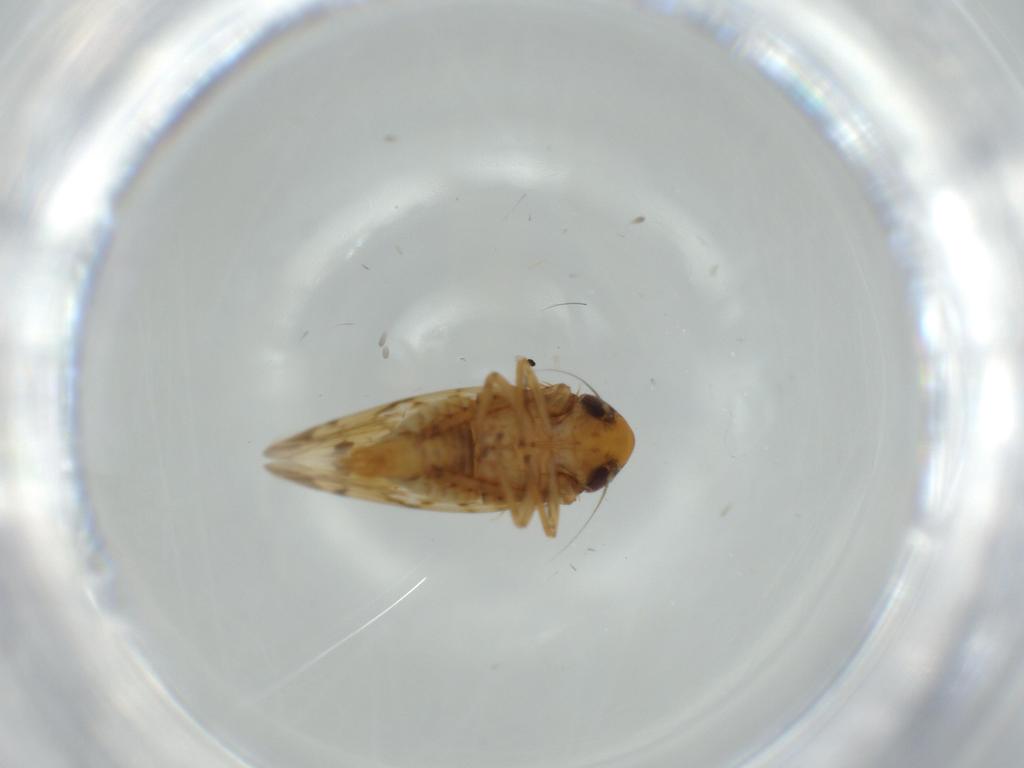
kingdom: Animalia
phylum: Arthropoda
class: Insecta
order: Hemiptera
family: Cicadellidae
